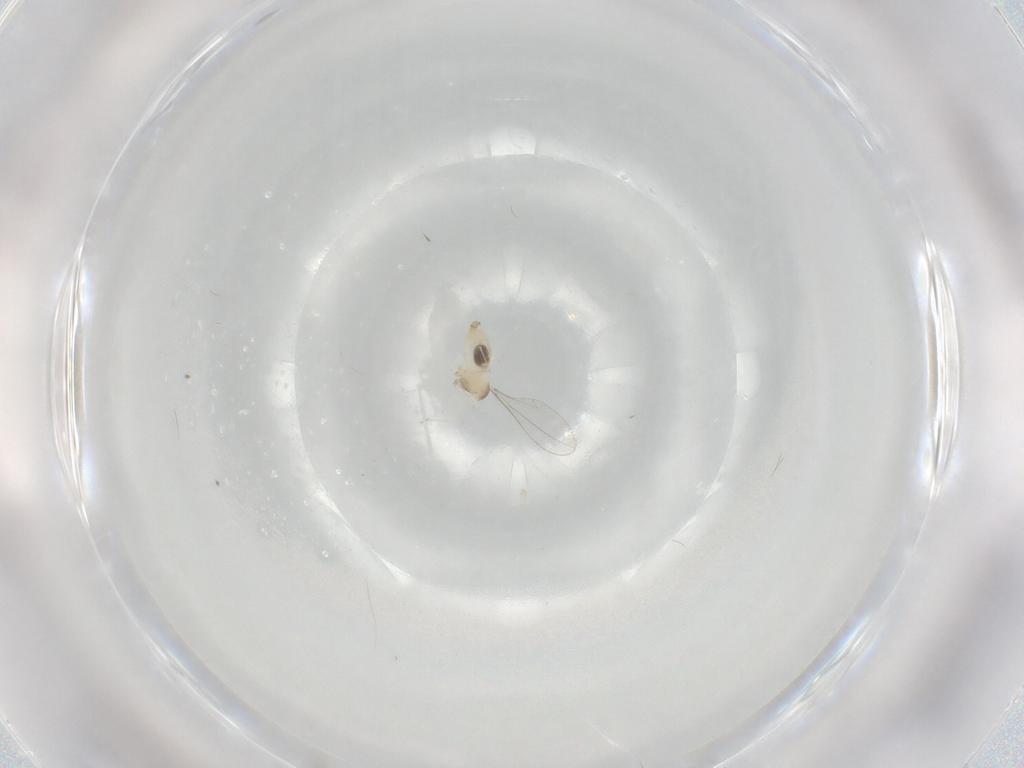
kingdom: Animalia
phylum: Arthropoda
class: Insecta
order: Diptera
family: Cecidomyiidae
